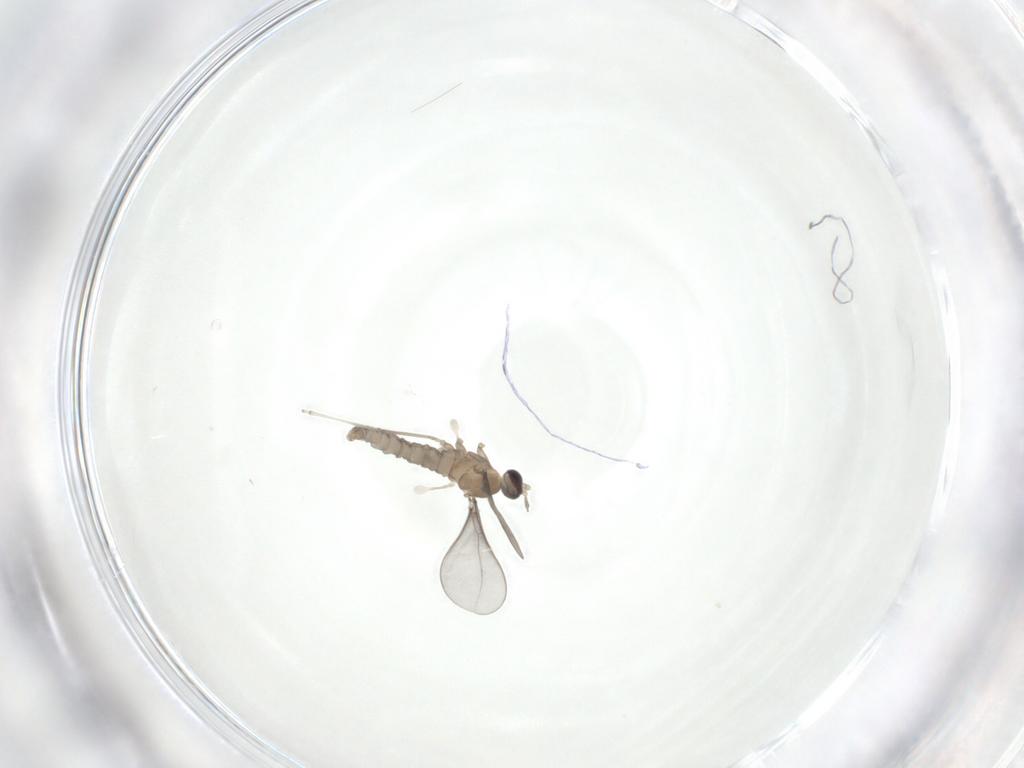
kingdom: Animalia
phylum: Arthropoda
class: Insecta
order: Diptera
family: Cecidomyiidae
